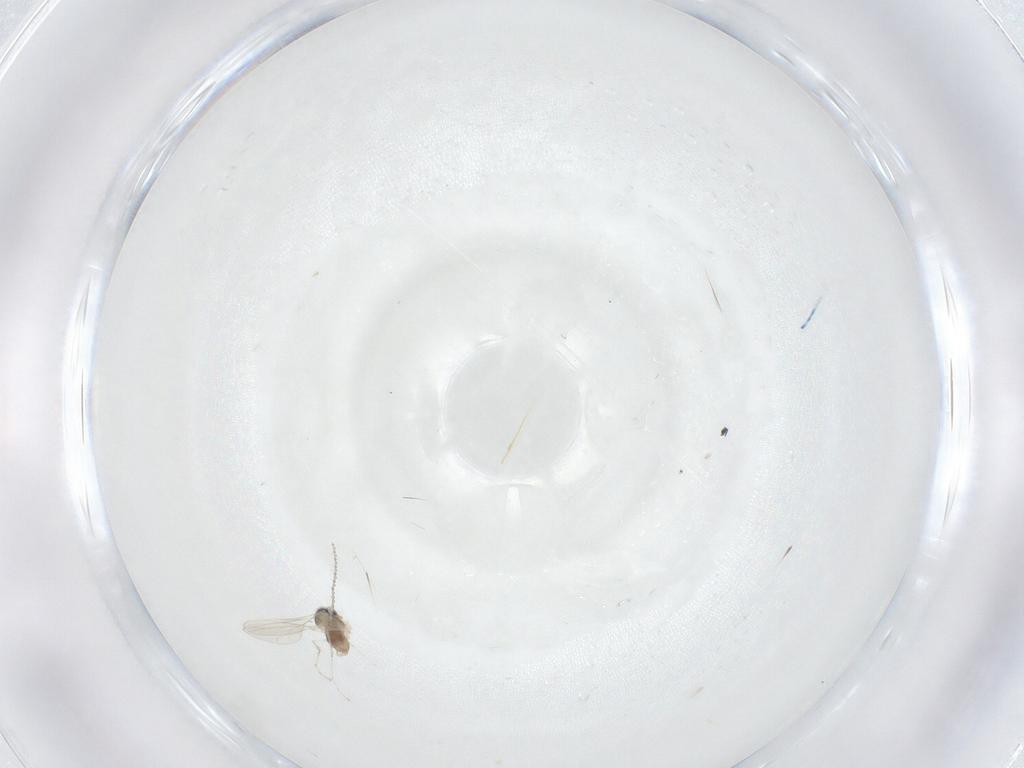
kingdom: Animalia
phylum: Arthropoda
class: Insecta
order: Diptera
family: Cecidomyiidae
